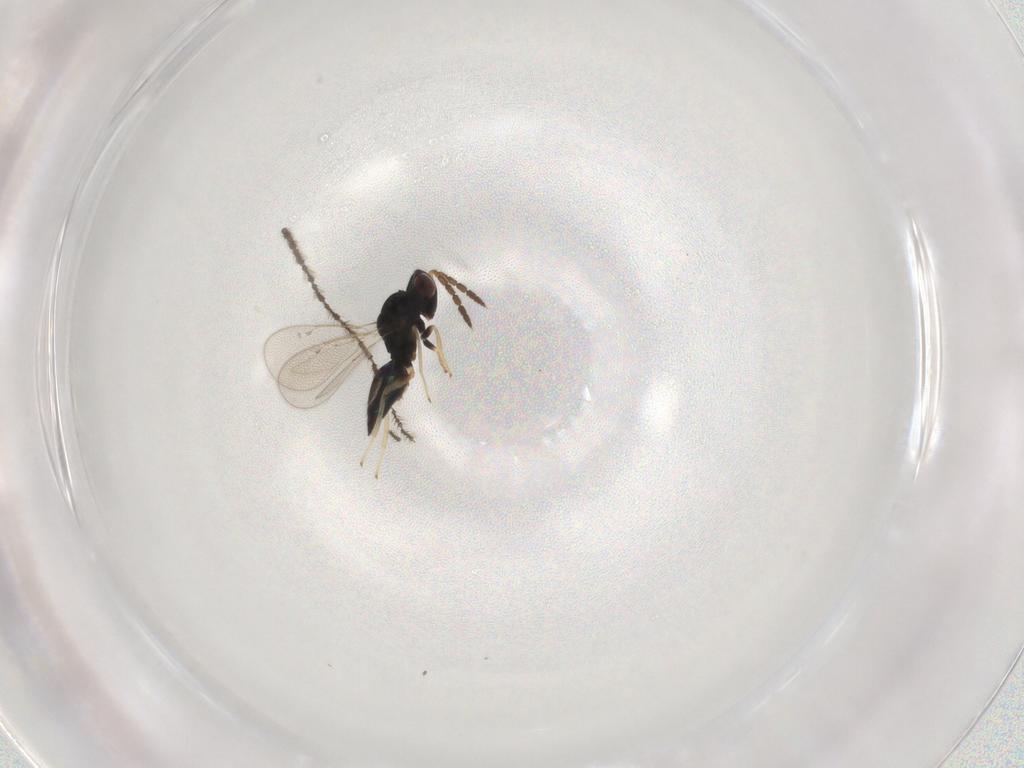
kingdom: Animalia
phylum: Arthropoda
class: Insecta
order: Hymenoptera
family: Eulophidae
